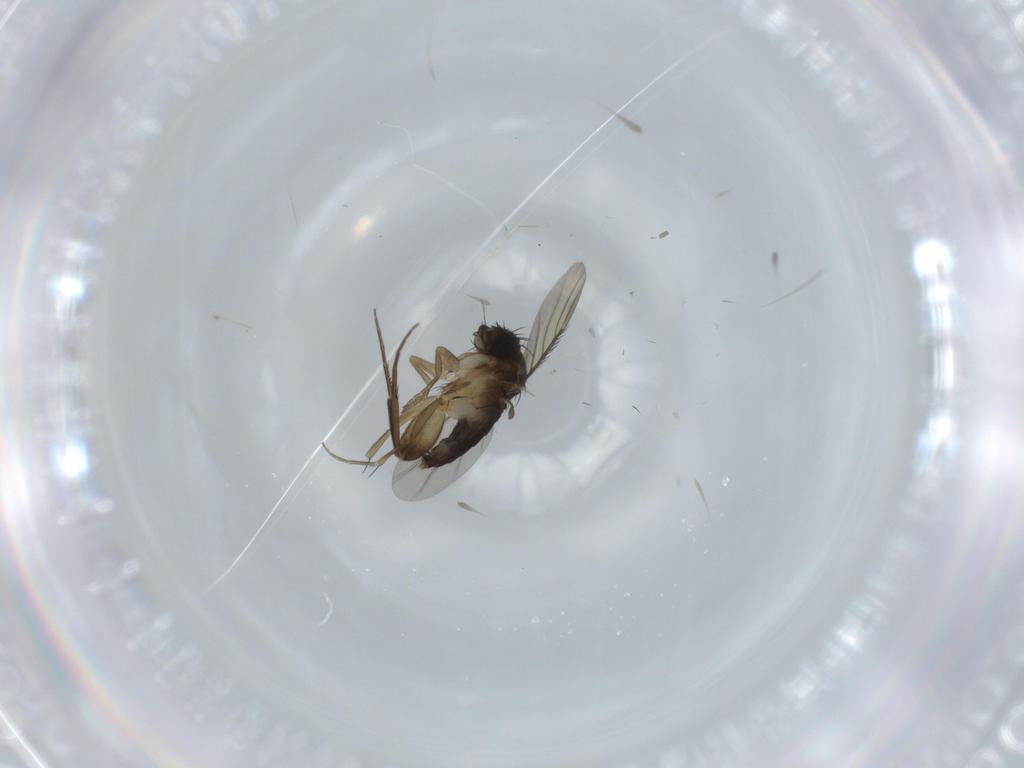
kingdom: Animalia
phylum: Arthropoda
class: Insecta
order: Diptera
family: Phoridae
